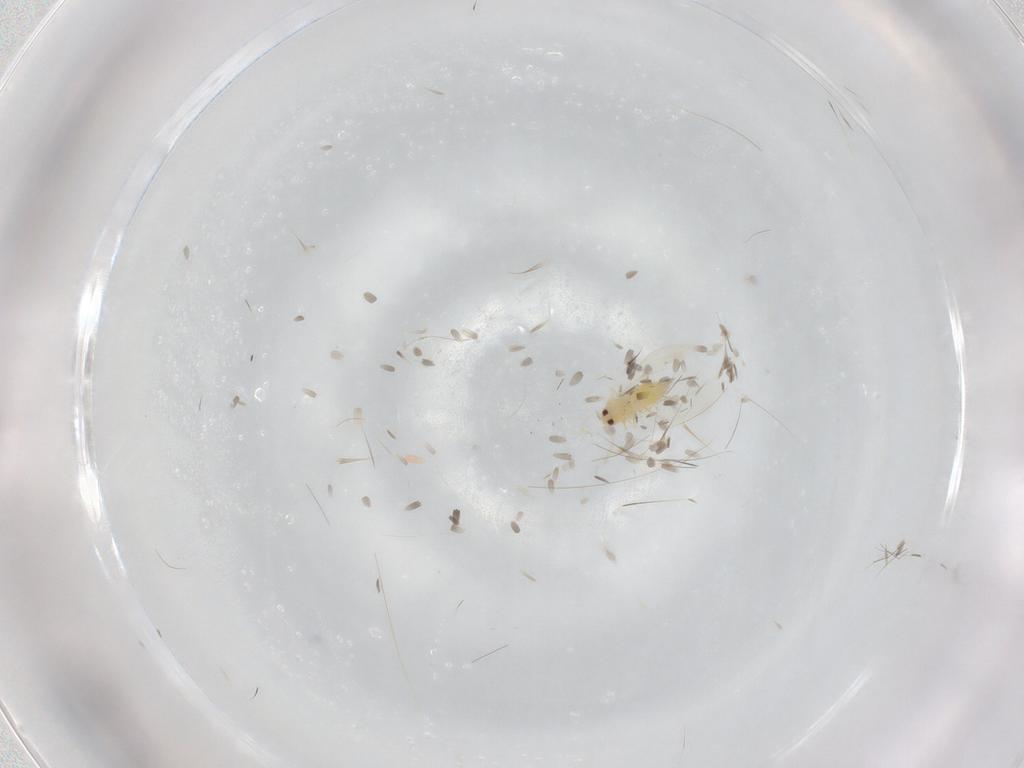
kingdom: Animalia
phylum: Arthropoda
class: Insecta
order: Hemiptera
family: Aleyrodidae
